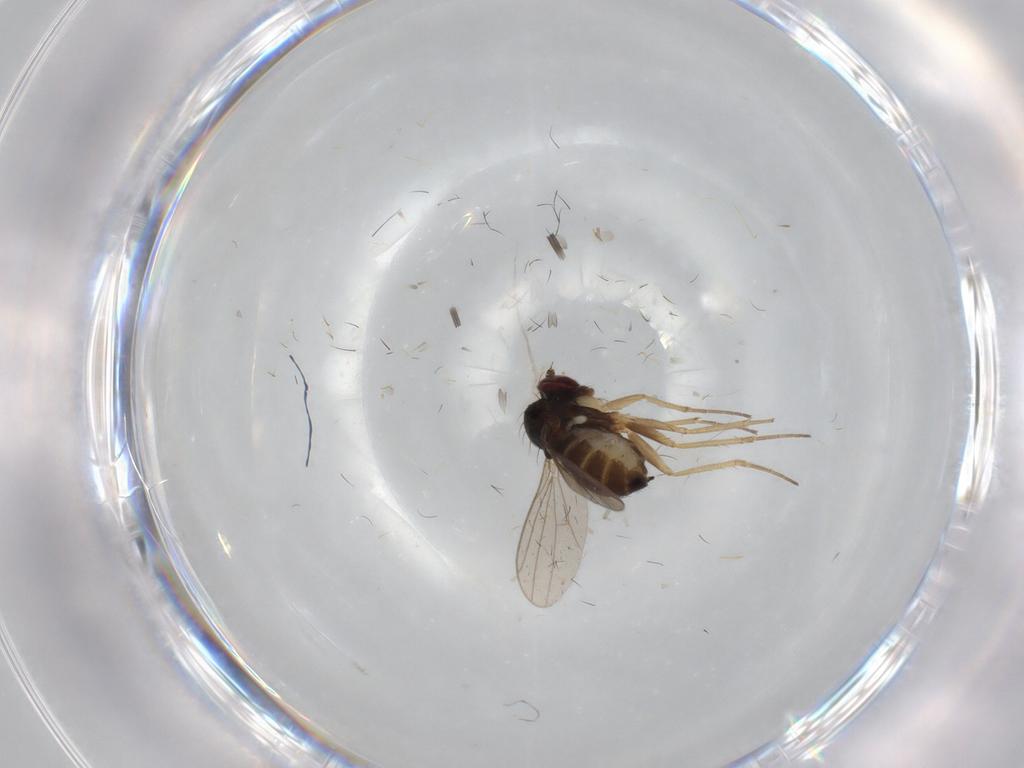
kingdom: Animalia
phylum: Arthropoda
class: Insecta
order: Diptera
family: Dolichopodidae
